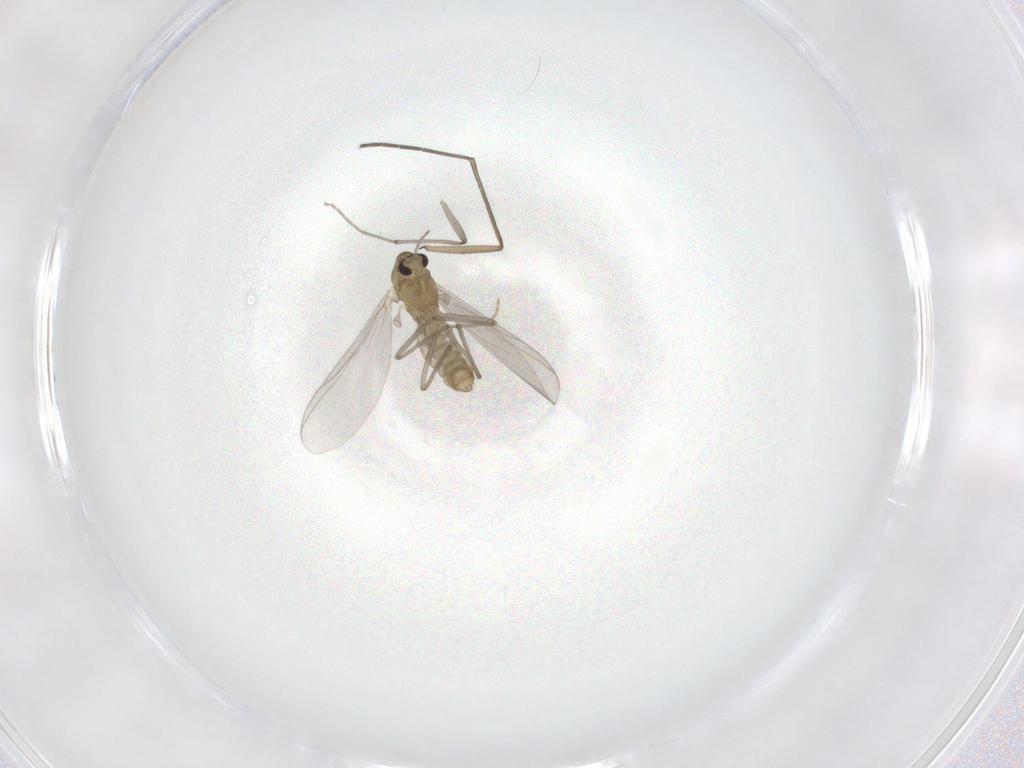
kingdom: Animalia
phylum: Arthropoda
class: Insecta
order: Diptera
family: Chironomidae
